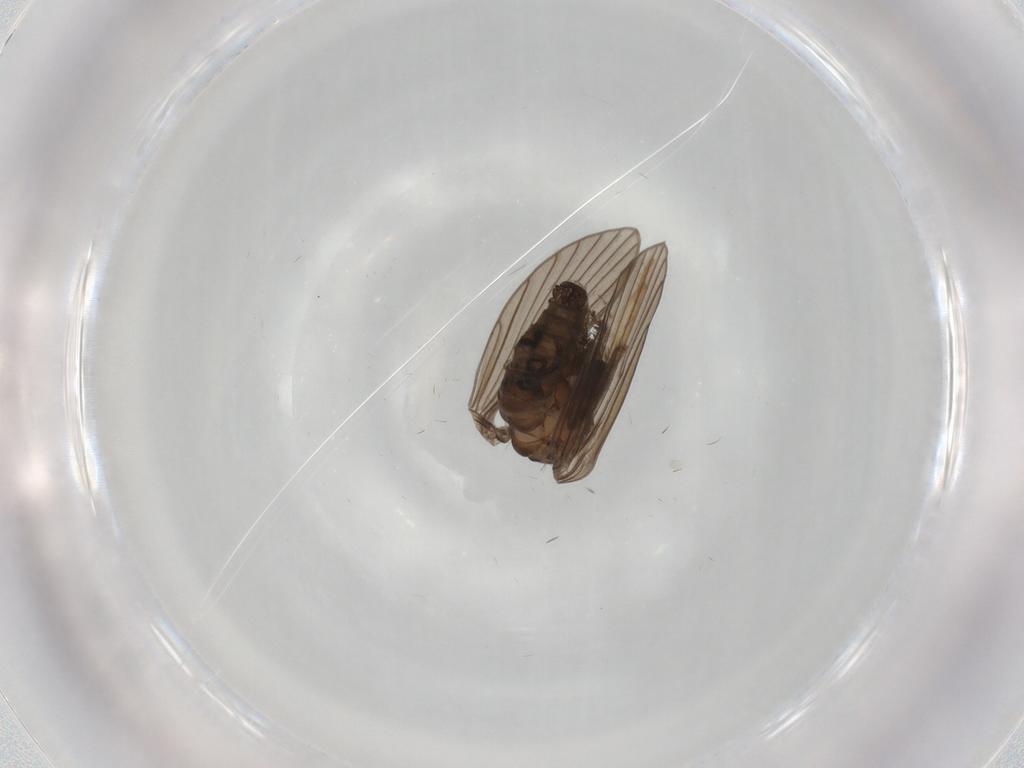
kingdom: Animalia
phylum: Arthropoda
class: Insecta
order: Diptera
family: Psychodidae
